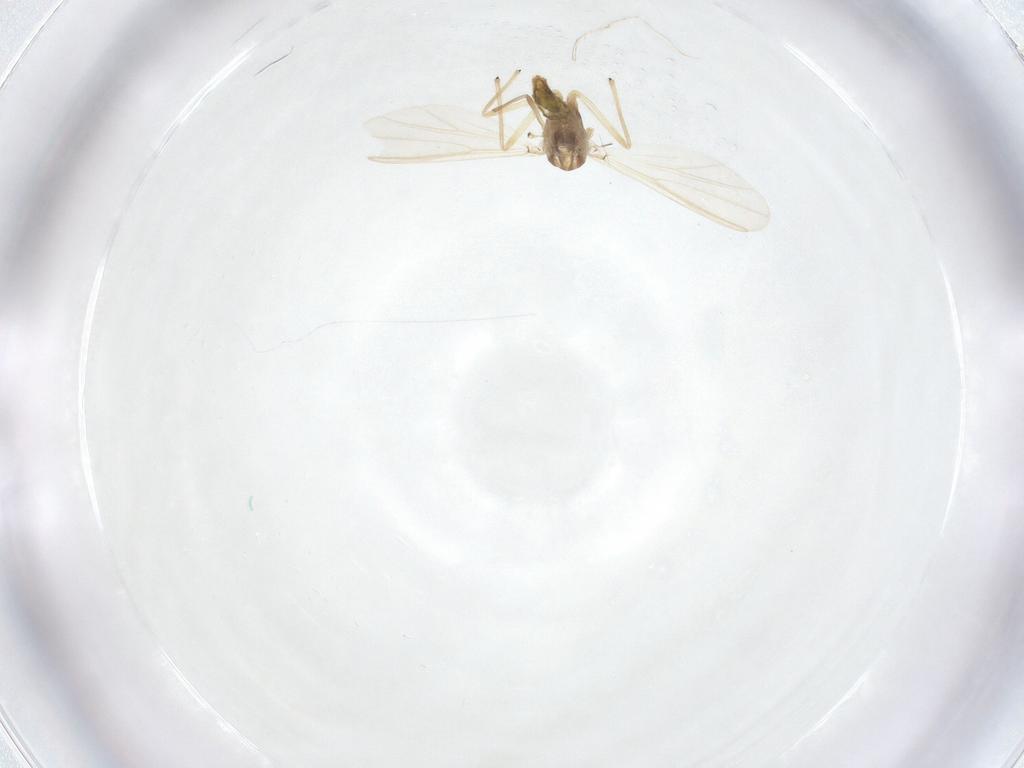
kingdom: Animalia
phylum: Arthropoda
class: Insecta
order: Diptera
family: Chironomidae
